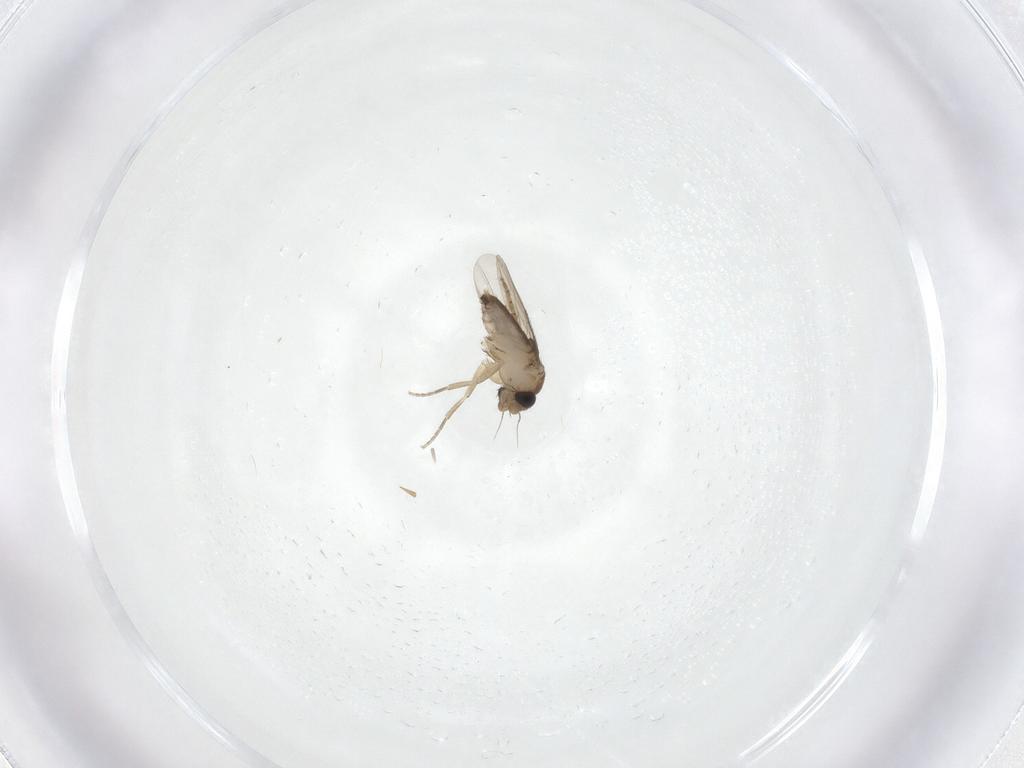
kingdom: Animalia
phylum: Arthropoda
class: Insecta
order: Diptera
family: Phoridae
